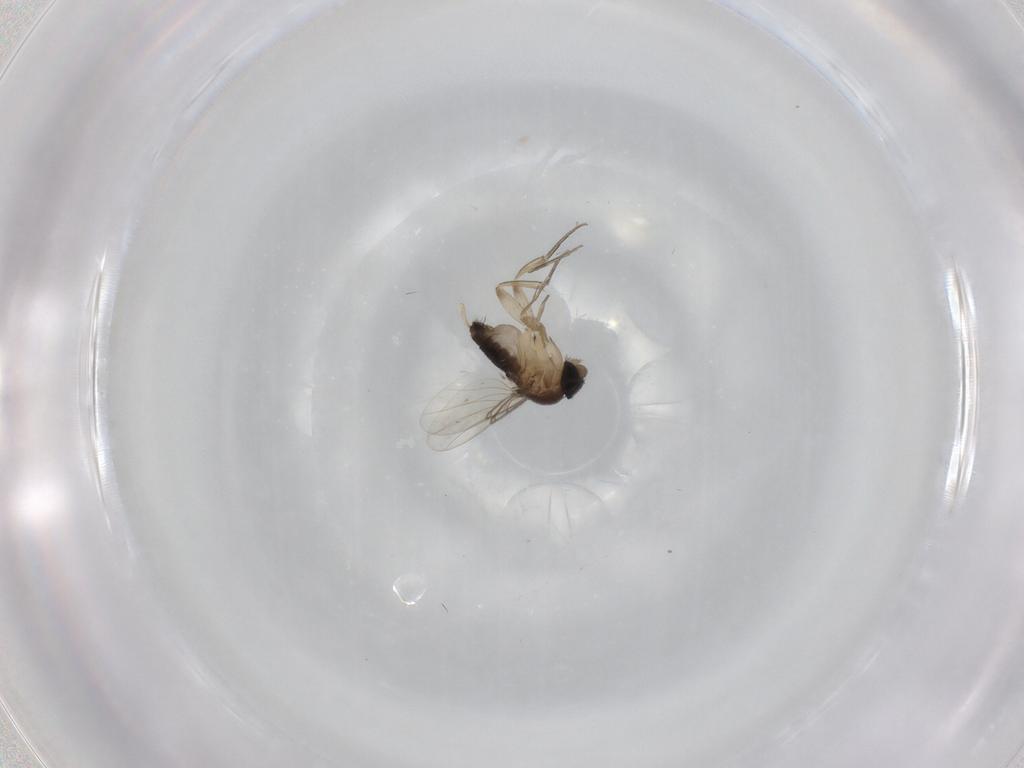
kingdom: Animalia
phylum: Arthropoda
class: Insecta
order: Diptera
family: Phoridae
